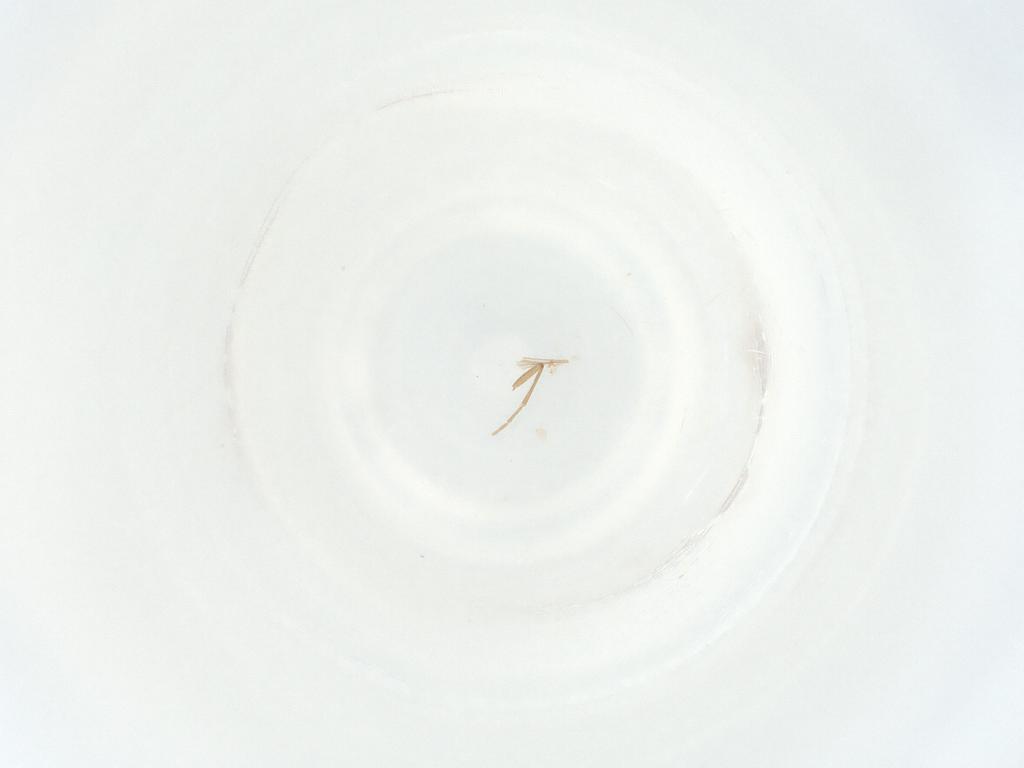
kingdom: Animalia
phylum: Arthropoda
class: Insecta
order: Diptera
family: Sciaridae
